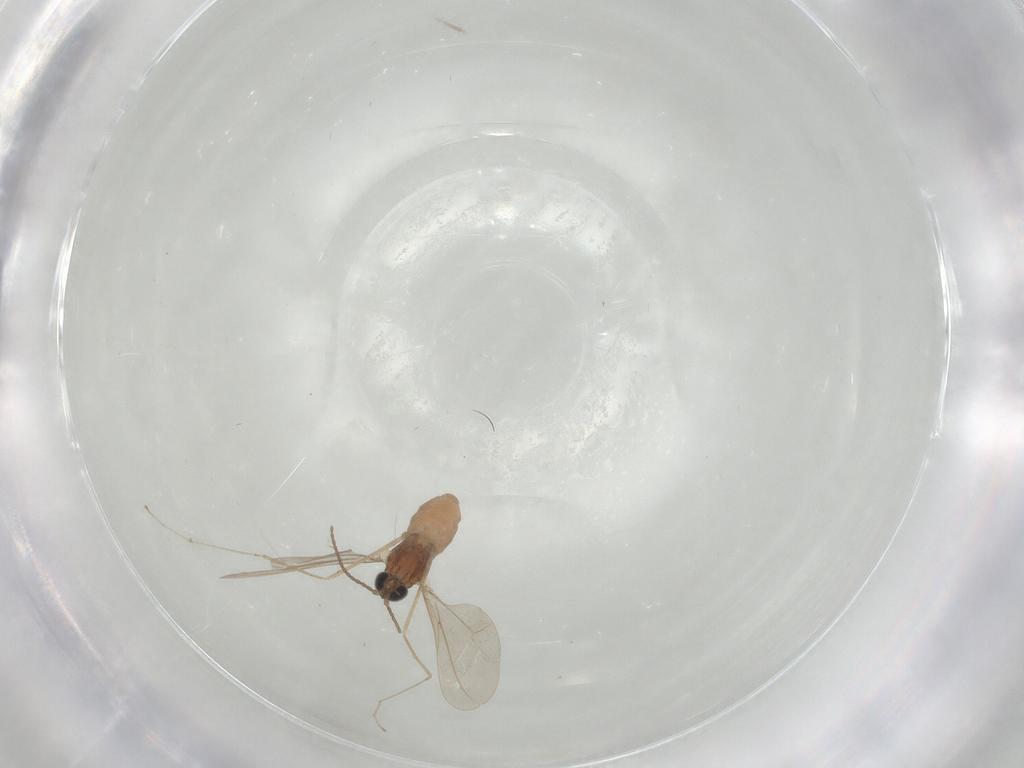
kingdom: Animalia
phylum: Arthropoda
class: Insecta
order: Diptera
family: Cecidomyiidae
